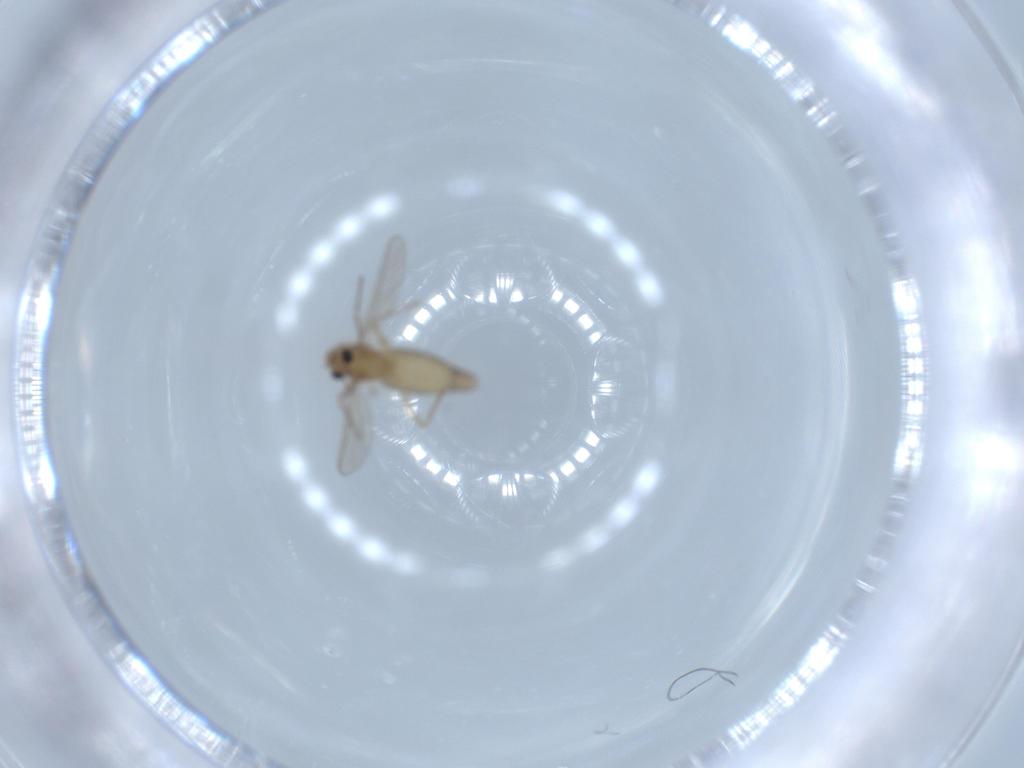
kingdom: Animalia
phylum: Arthropoda
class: Insecta
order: Diptera
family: Chironomidae
